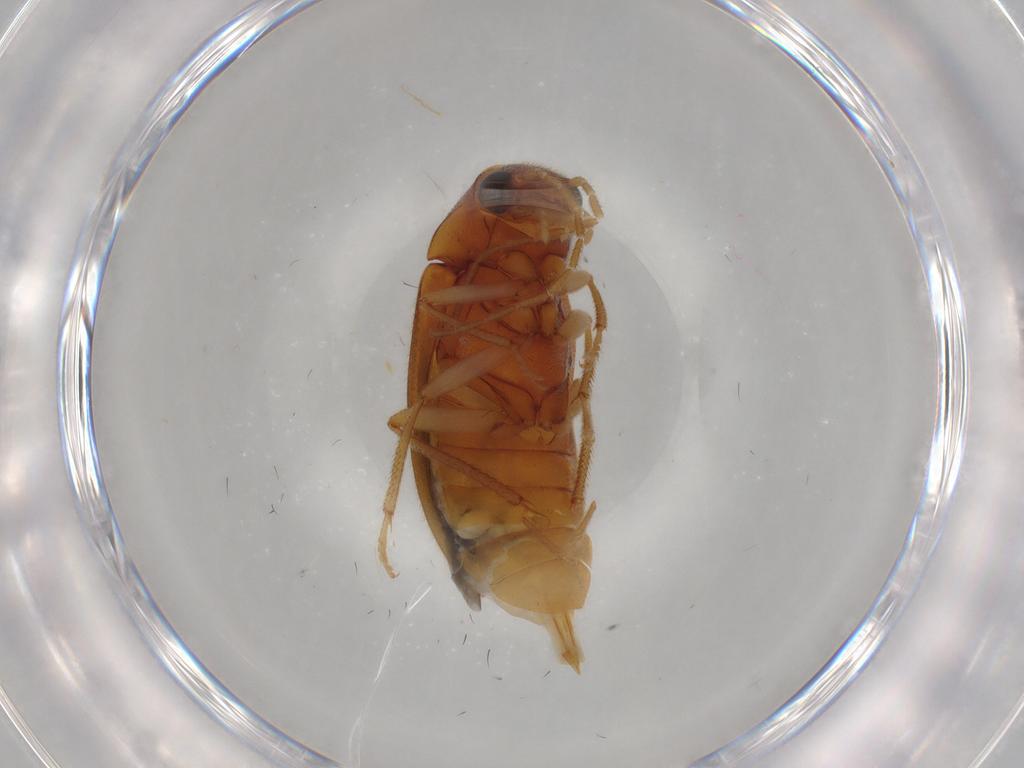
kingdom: Animalia
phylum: Arthropoda
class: Insecta
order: Coleoptera
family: Ptilodactylidae
